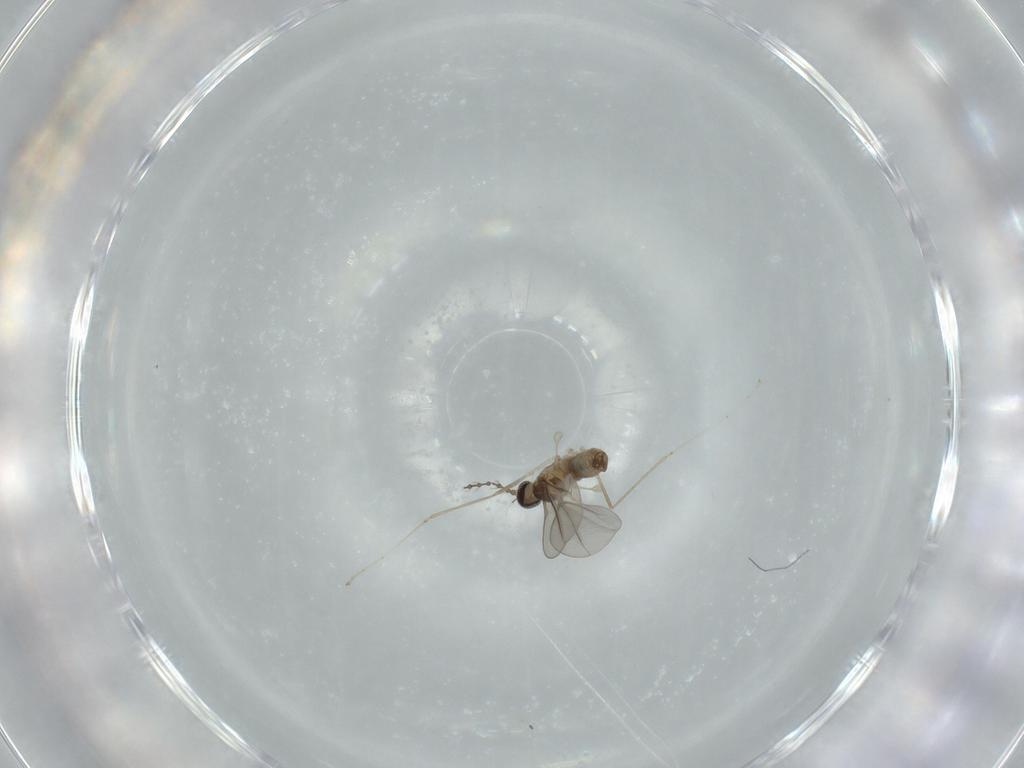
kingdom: Animalia
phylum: Arthropoda
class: Insecta
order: Diptera
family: Cecidomyiidae
